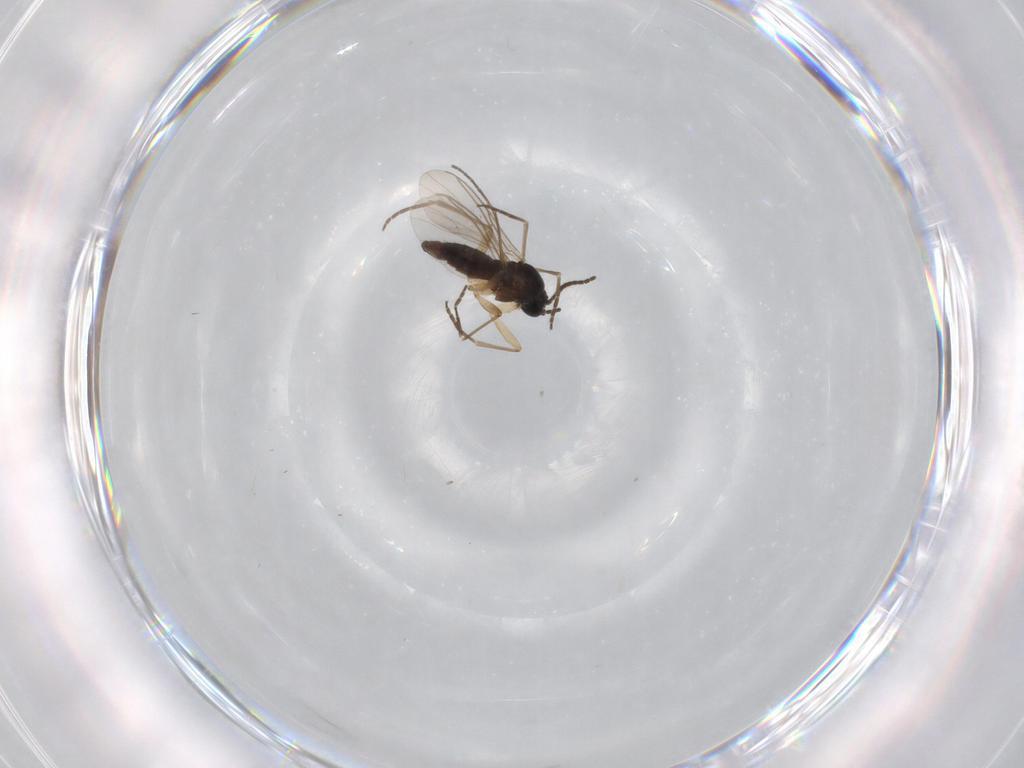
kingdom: Animalia
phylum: Arthropoda
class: Insecta
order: Diptera
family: Sciaridae
